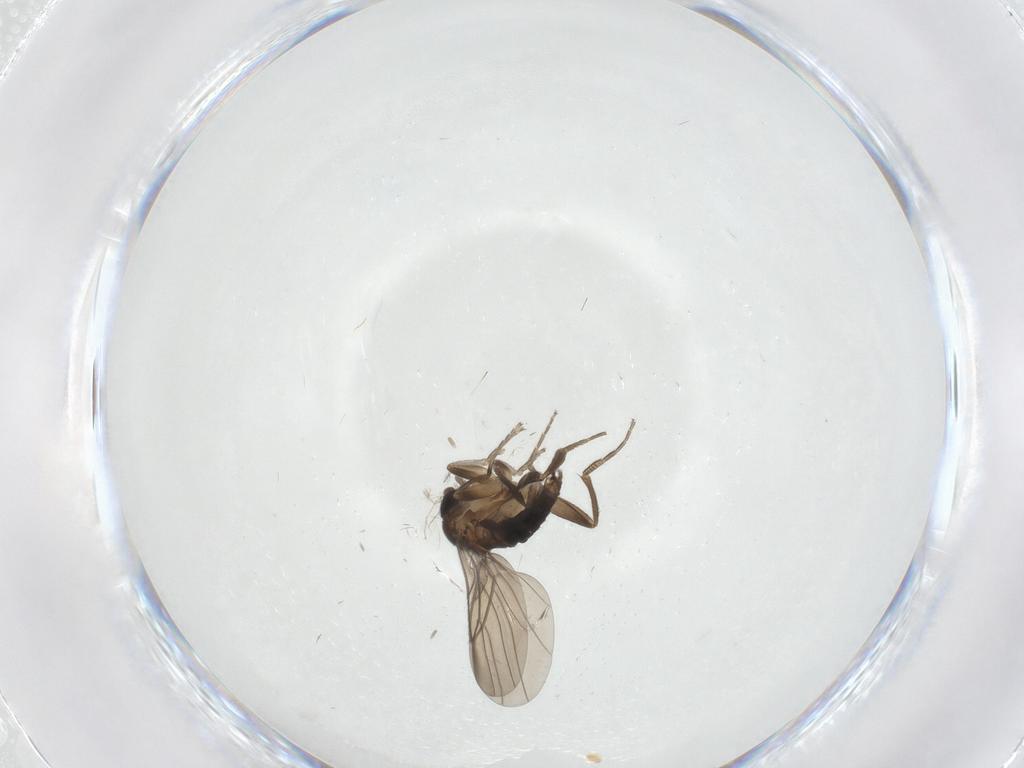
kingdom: Animalia
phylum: Arthropoda
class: Insecta
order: Diptera
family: Cecidomyiidae
